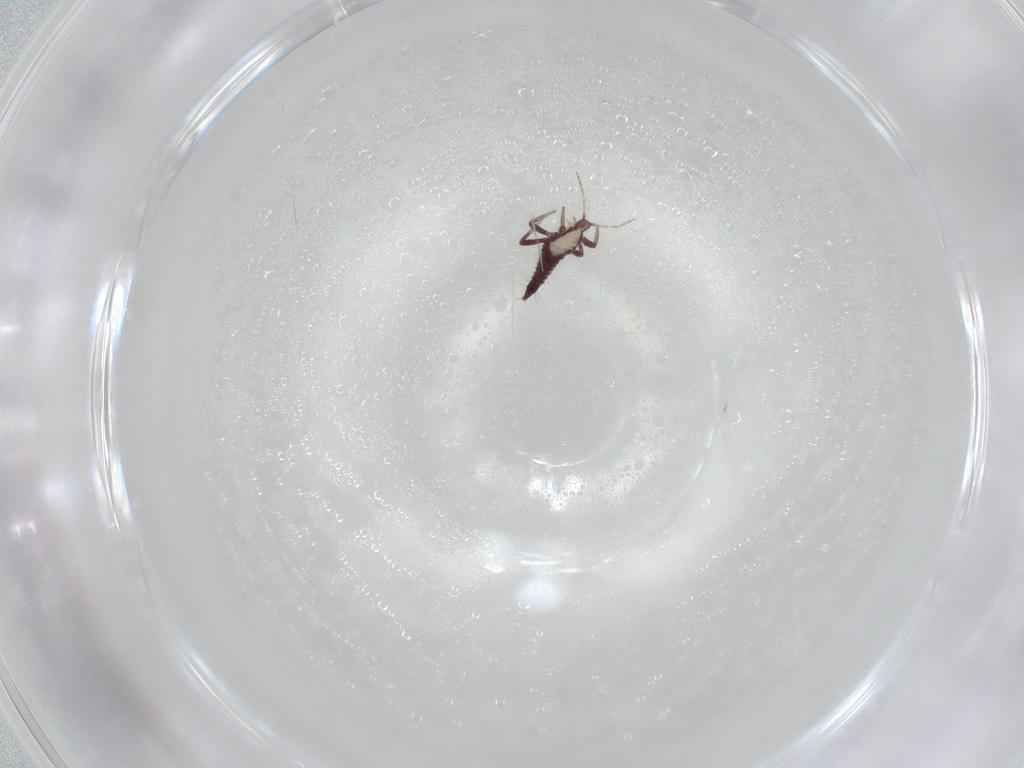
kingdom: Animalia
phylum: Arthropoda
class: Insecta
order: Thysanoptera
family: Phlaeothripidae
